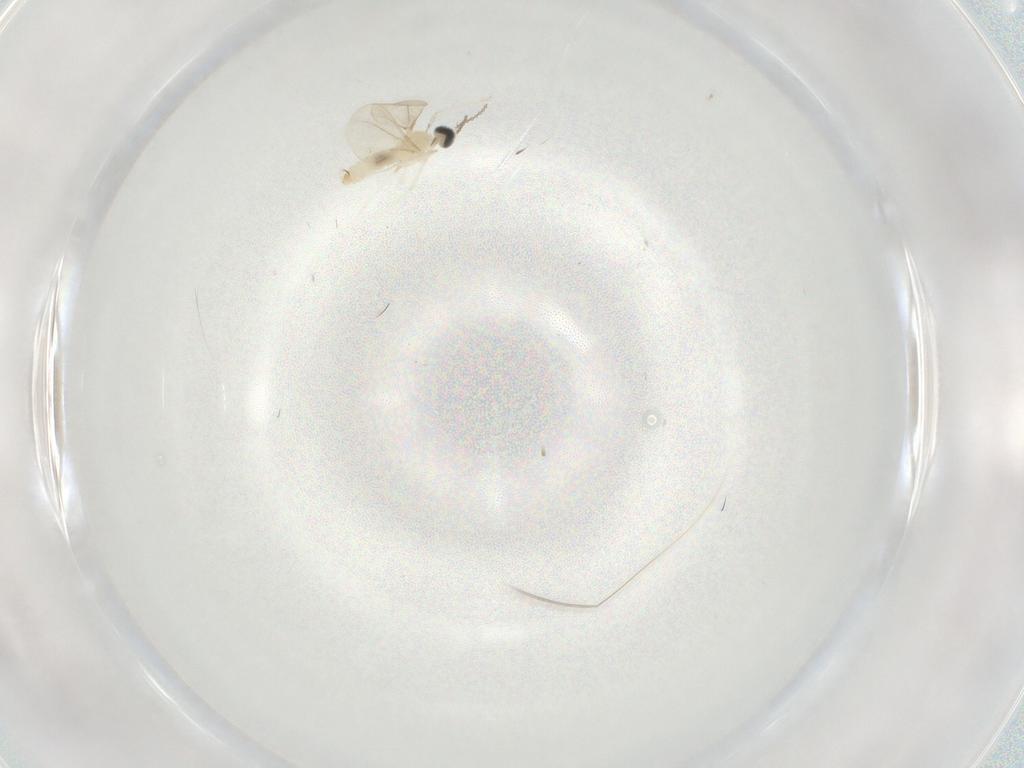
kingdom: Animalia
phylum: Arthropoda
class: Insecta
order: Diptera
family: Cecidomyiidae
